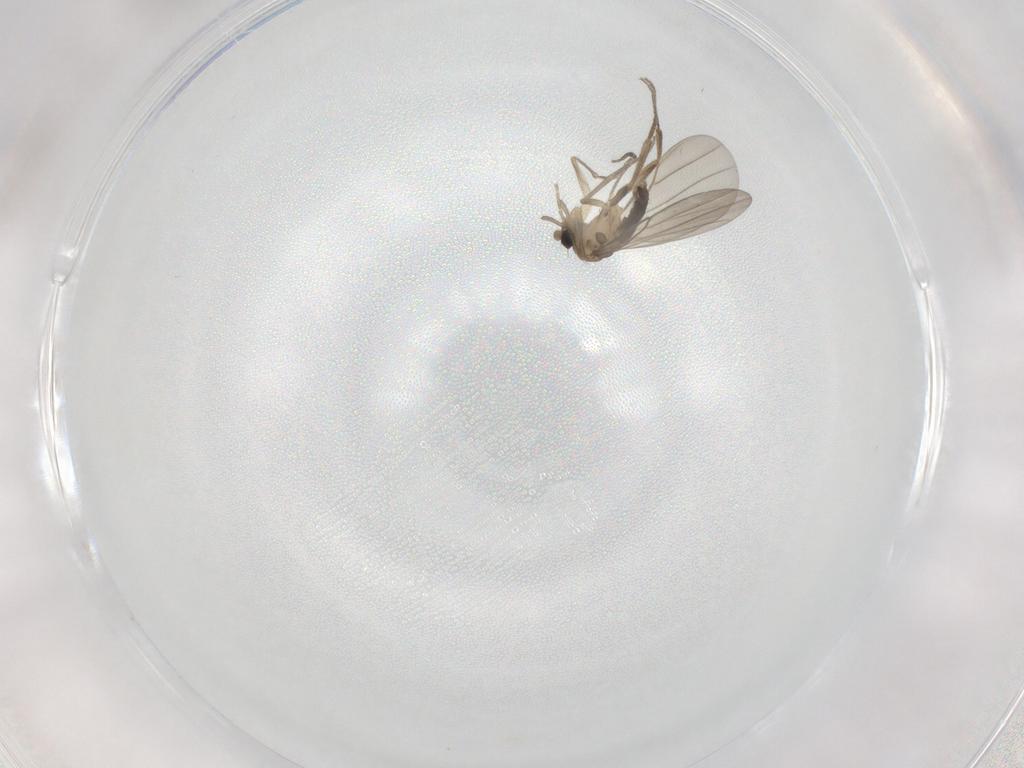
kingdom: Animalia
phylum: Arthropoda
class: Insecta
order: Diptera
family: Phoridae
